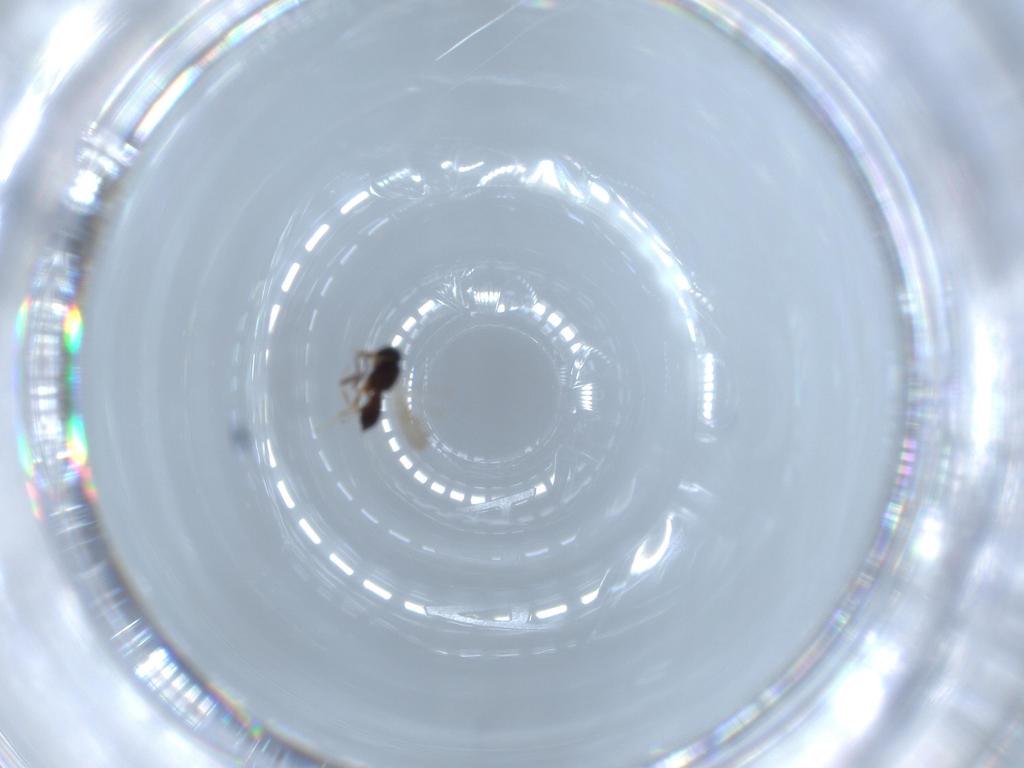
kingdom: Animalia
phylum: Arthropoda
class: Insecta
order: Hymenoptera
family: Scelionidae
